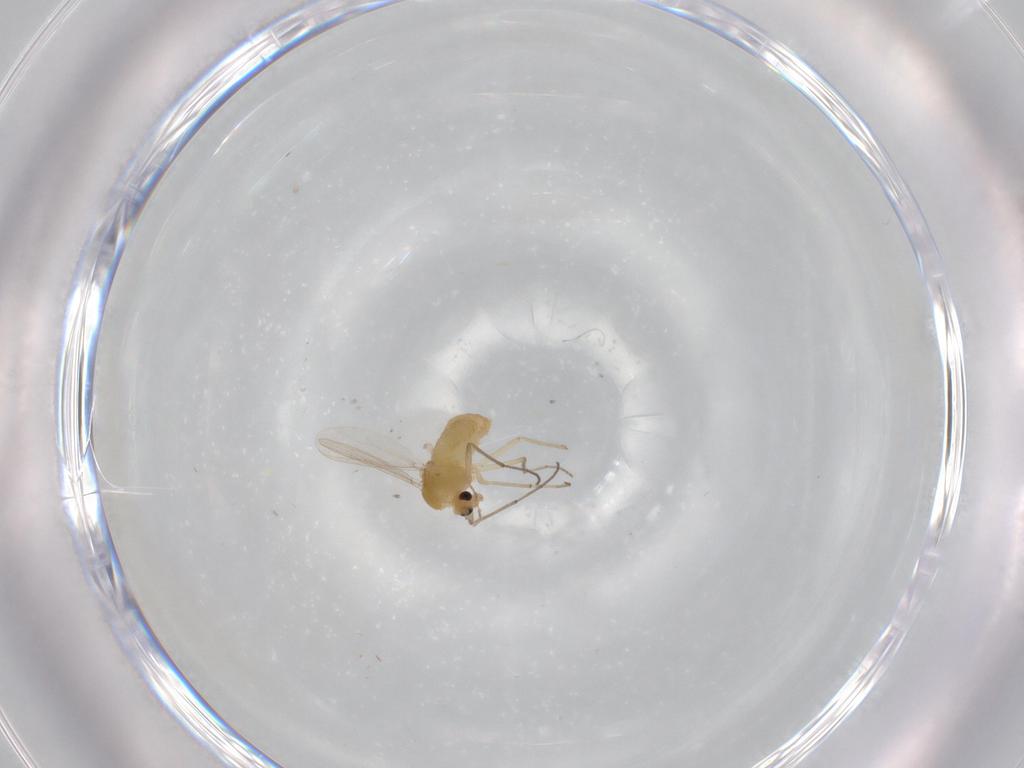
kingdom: Animalia
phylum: Arthropoda
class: Insecta
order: Diptera
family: Chironomidae
